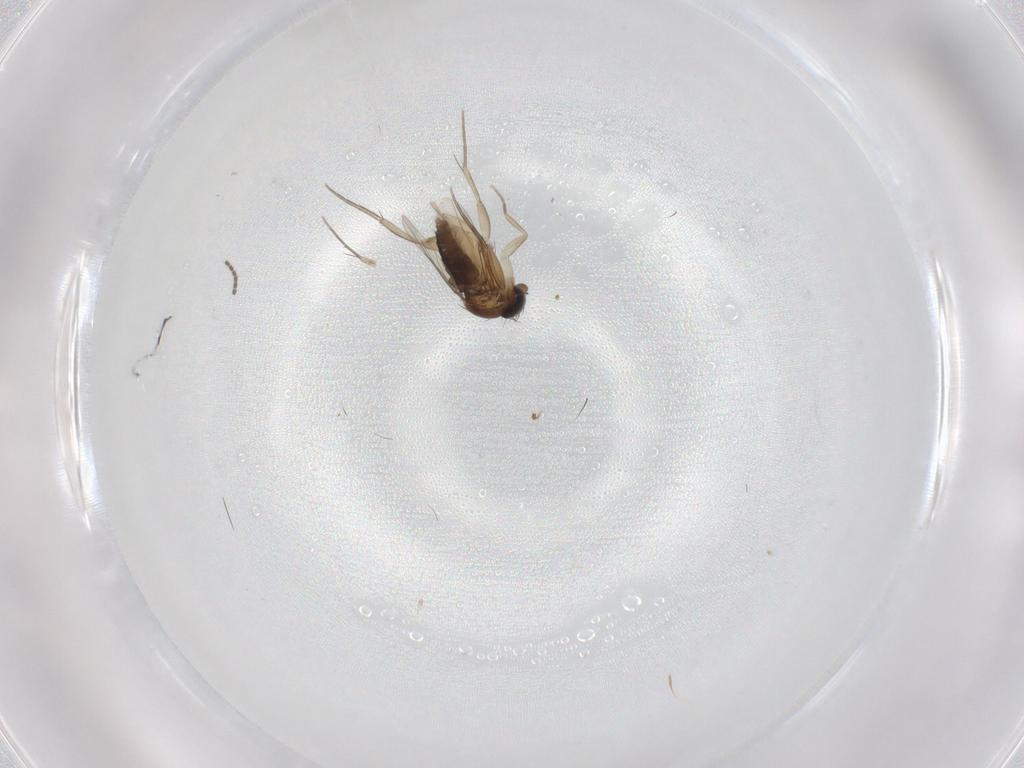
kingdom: Animalia
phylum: Arthropoda
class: Insecta
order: Diptera
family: Phoridae
